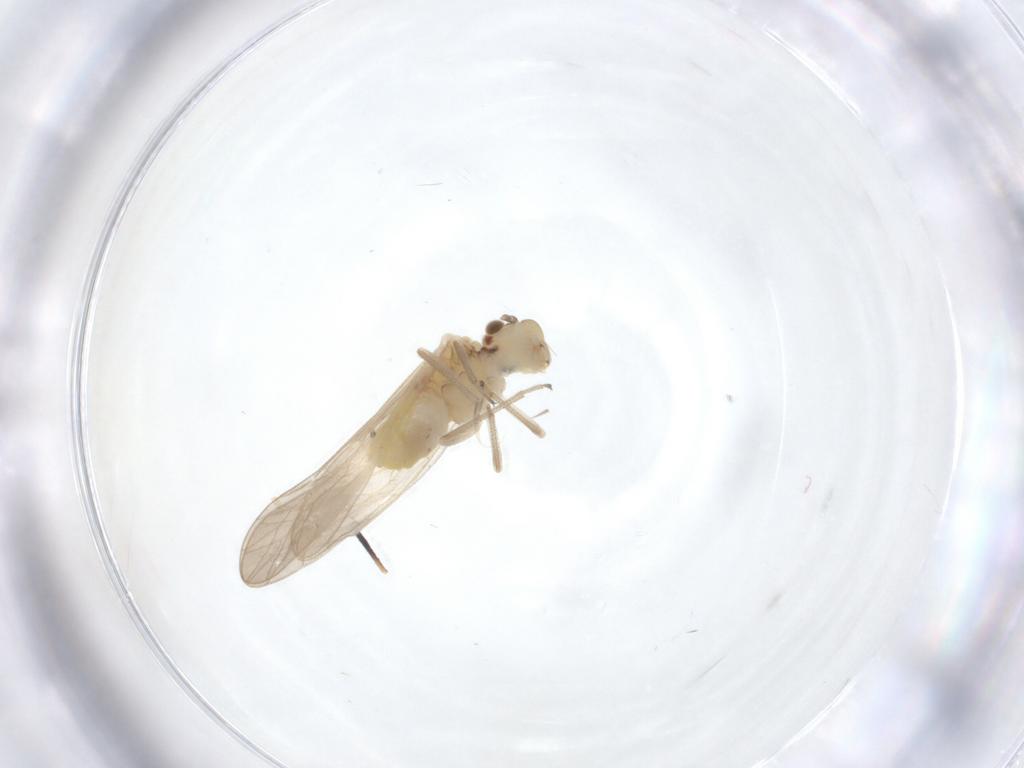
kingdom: Animalia
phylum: Arthropoda
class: Insecta
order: Psocodea
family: Caeciliusidae
